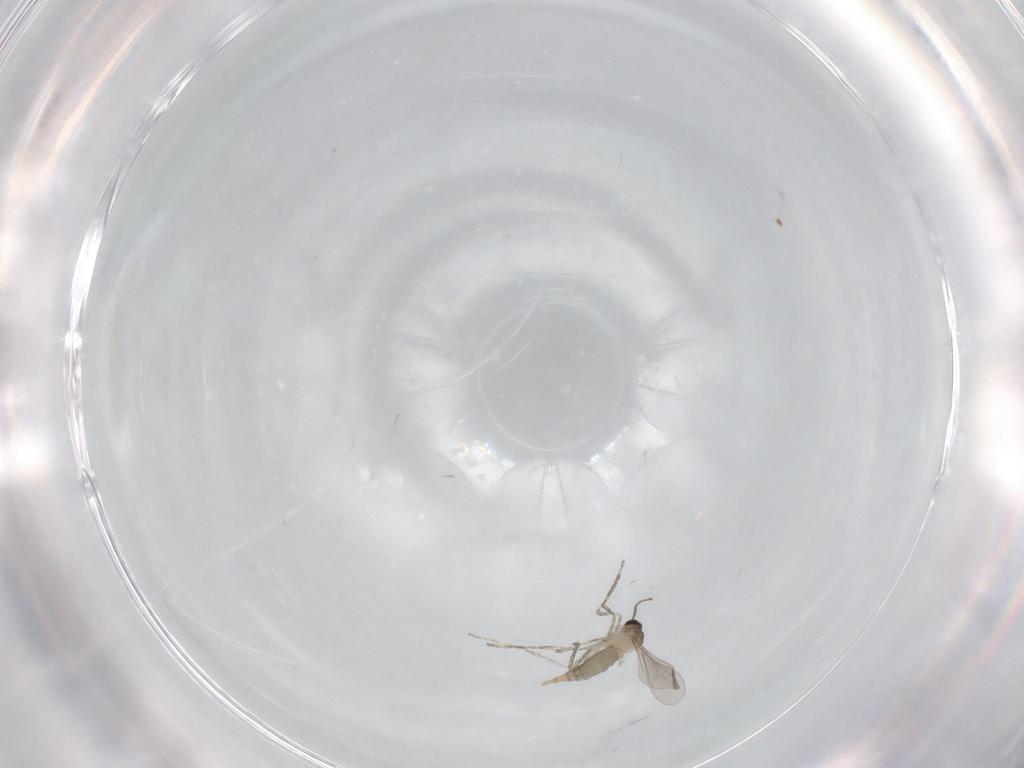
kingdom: Animalia
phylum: Arthropoda
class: Insecta
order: Diptera
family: Cecidomyiidae
